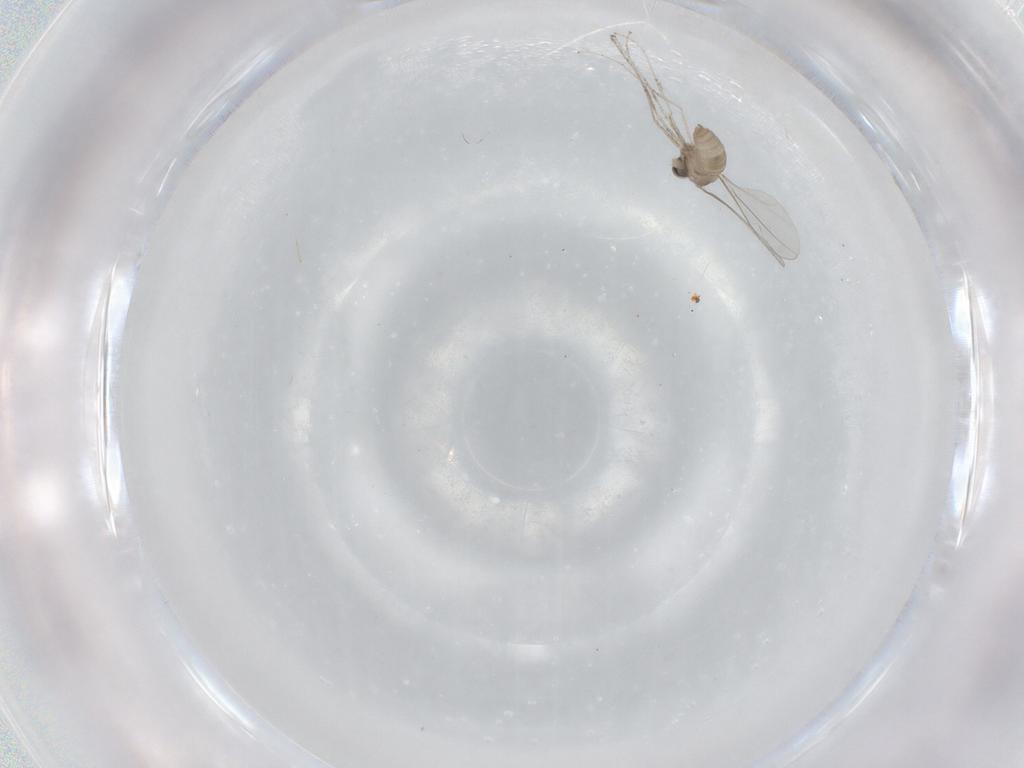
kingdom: Animalia
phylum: Arthropoda
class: Insecta
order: Diptera
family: Cecidomyiidae
